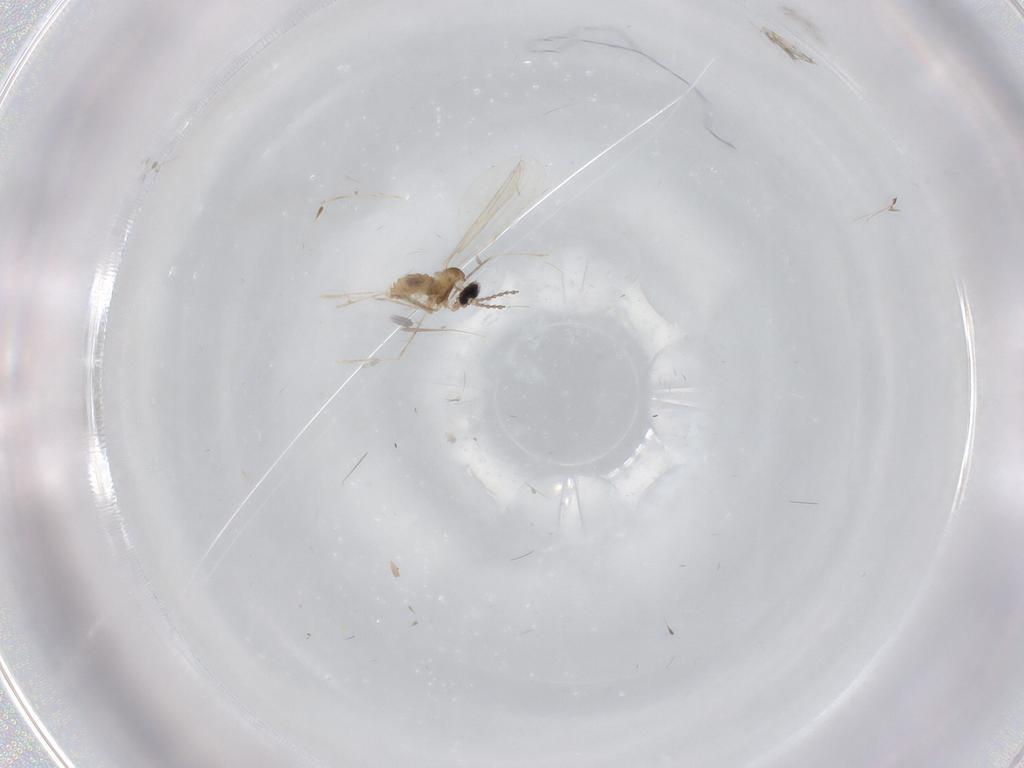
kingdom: Animalia
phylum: Arthropoda
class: Insecta
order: Diptera
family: Cecidomyiidae
